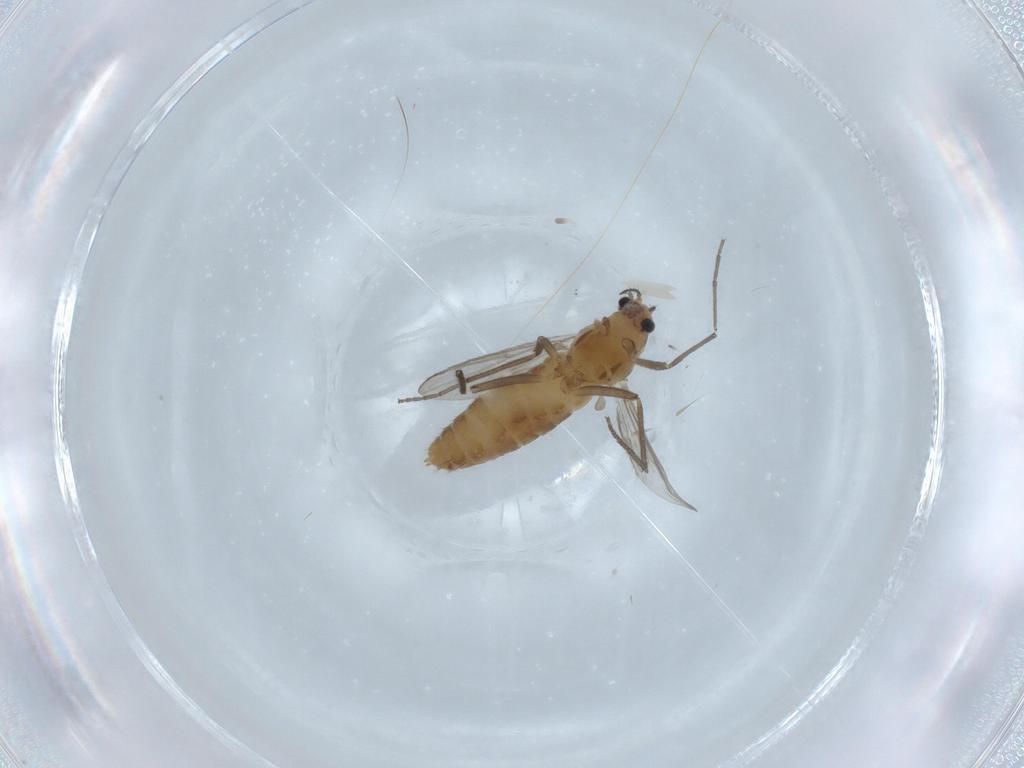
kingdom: Animalia
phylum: Arthropoda
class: Insecta
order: Diptera
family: Chironomidae
